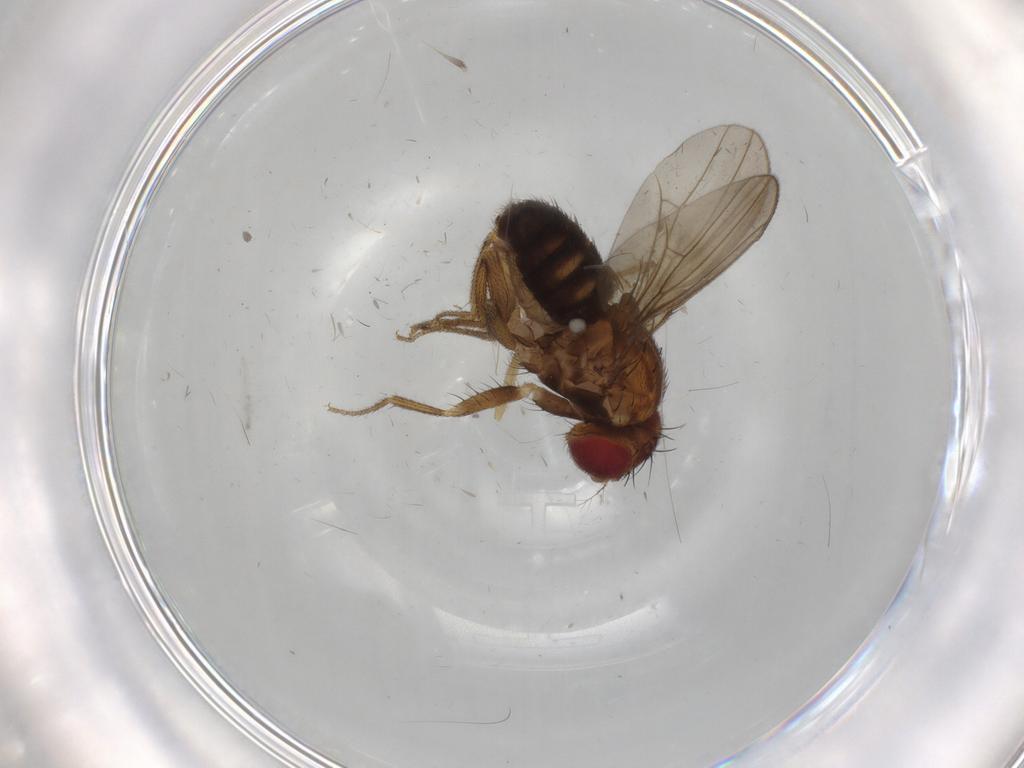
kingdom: Animalia
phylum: Arthropoda
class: Insecta
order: Diptera
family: Drosophilidae
